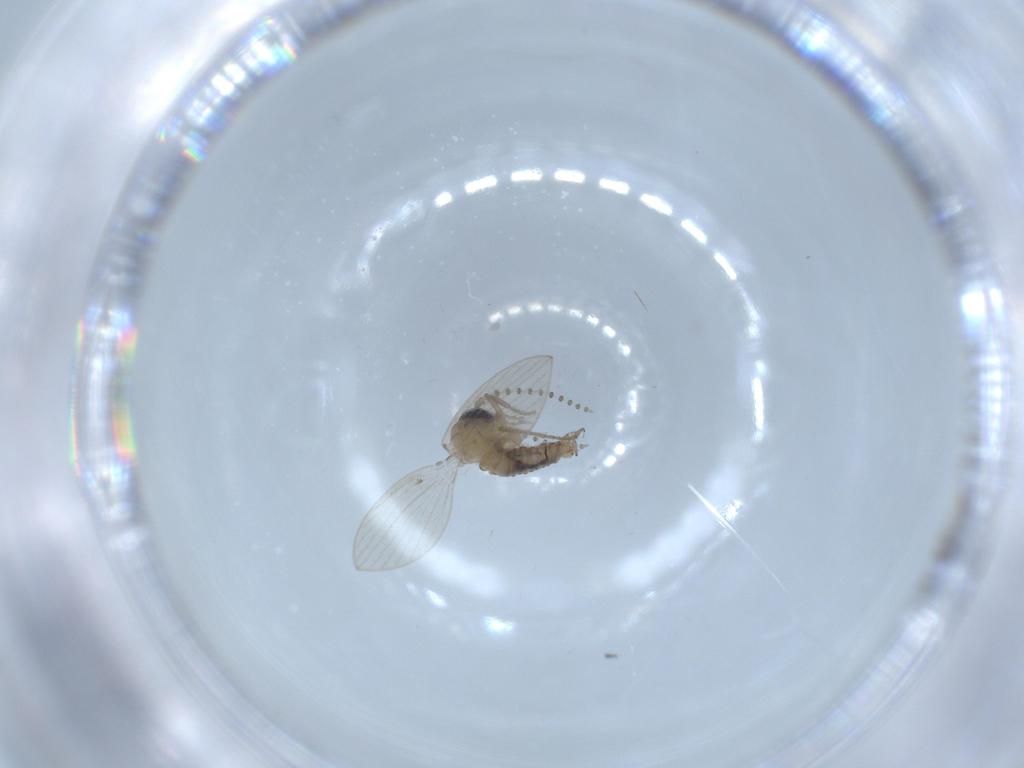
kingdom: Animalia
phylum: Arthropoda
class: Insecta
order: Diptera
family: Psychodidae
